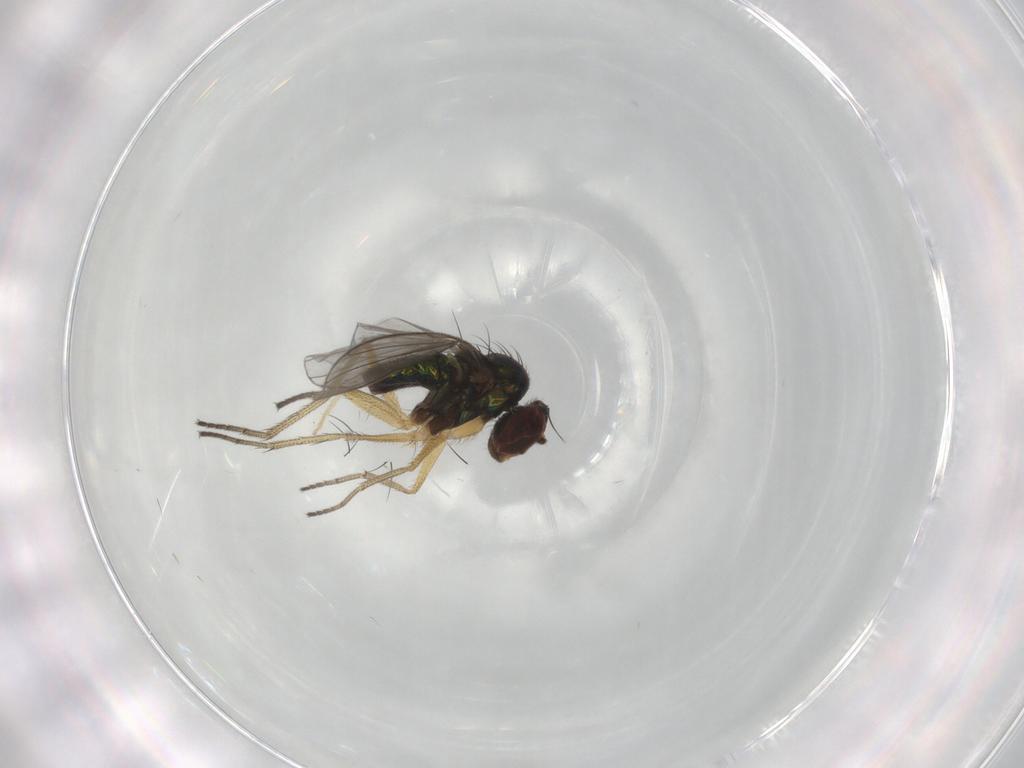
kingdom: Animalia
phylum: Arthropoda
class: Insecta
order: Diptera
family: Dolichopodidae
